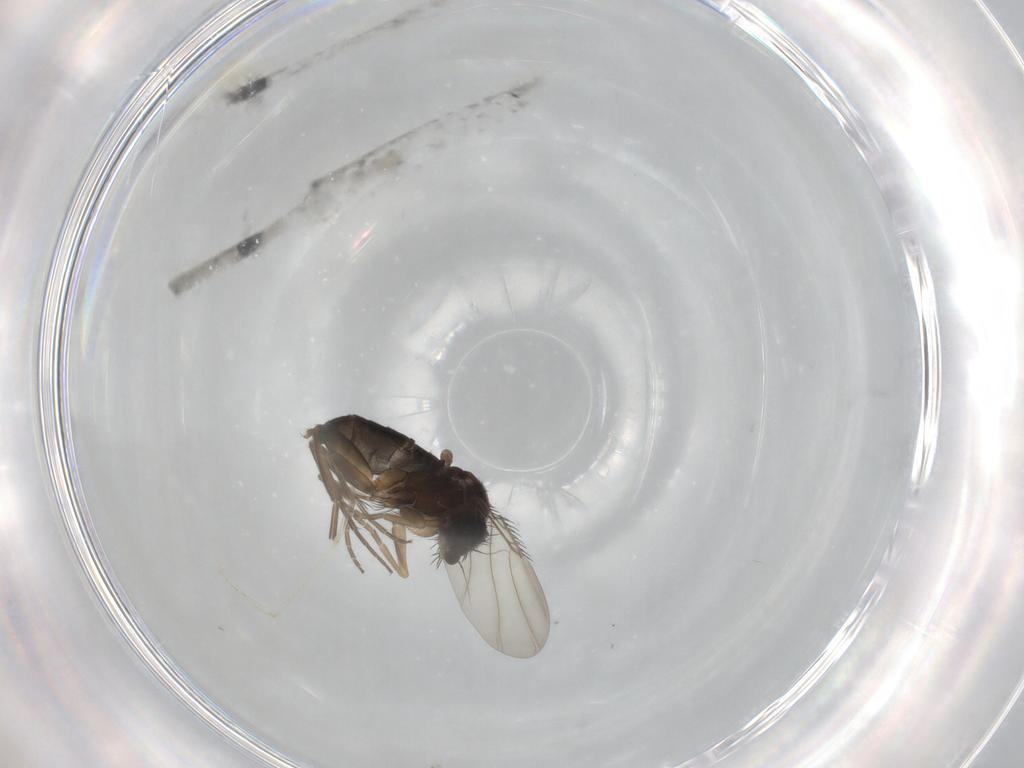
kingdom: Animalia
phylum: Arthropoda
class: Insecta
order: Diptera
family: Phoridae
